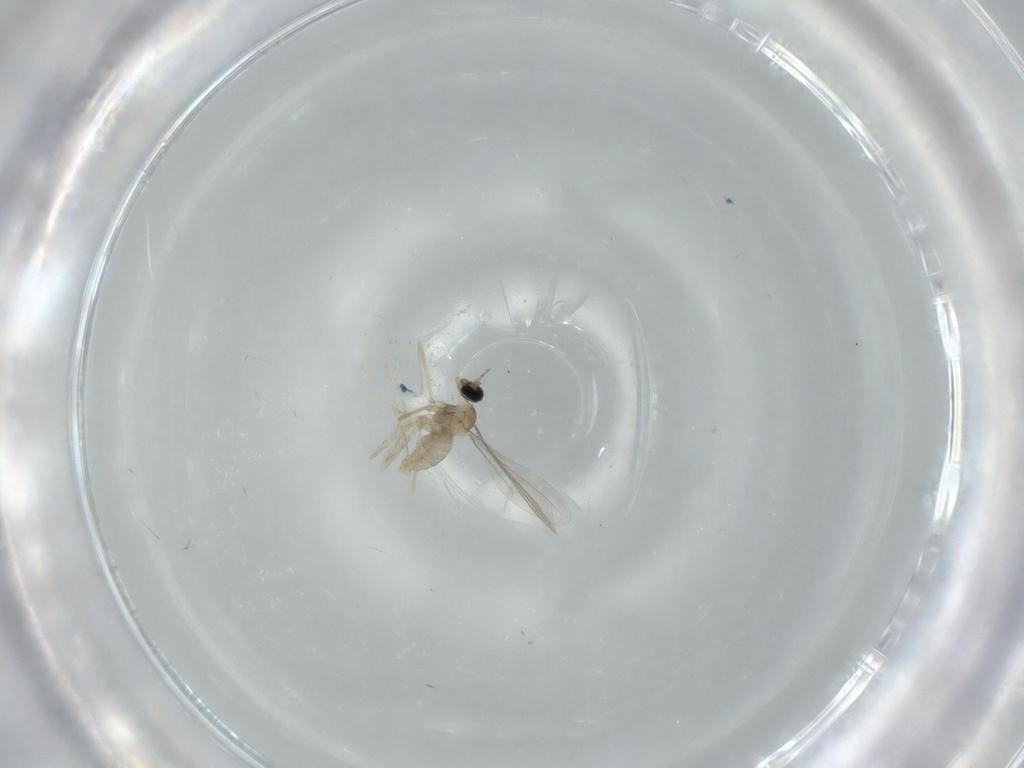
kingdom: Animalia
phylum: Arthropoda
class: Insecta
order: Diptera
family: Cecidomyiidae
